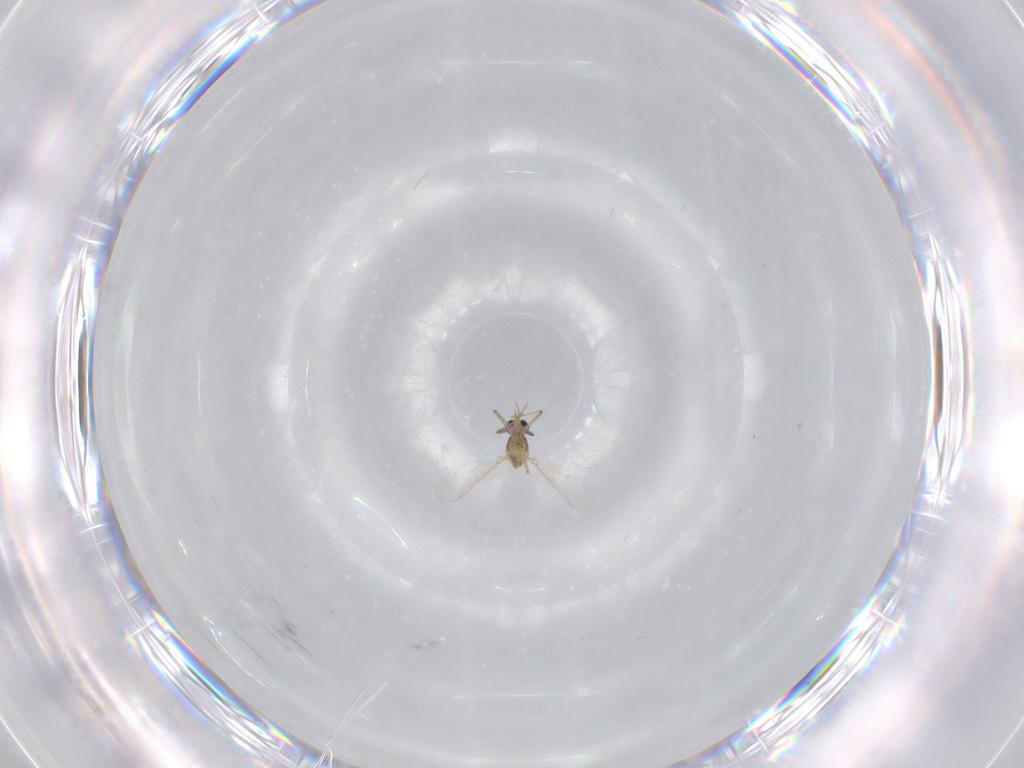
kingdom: Animalia
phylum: Arthropoda
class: Insecta
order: Diptera
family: Chironomidae
